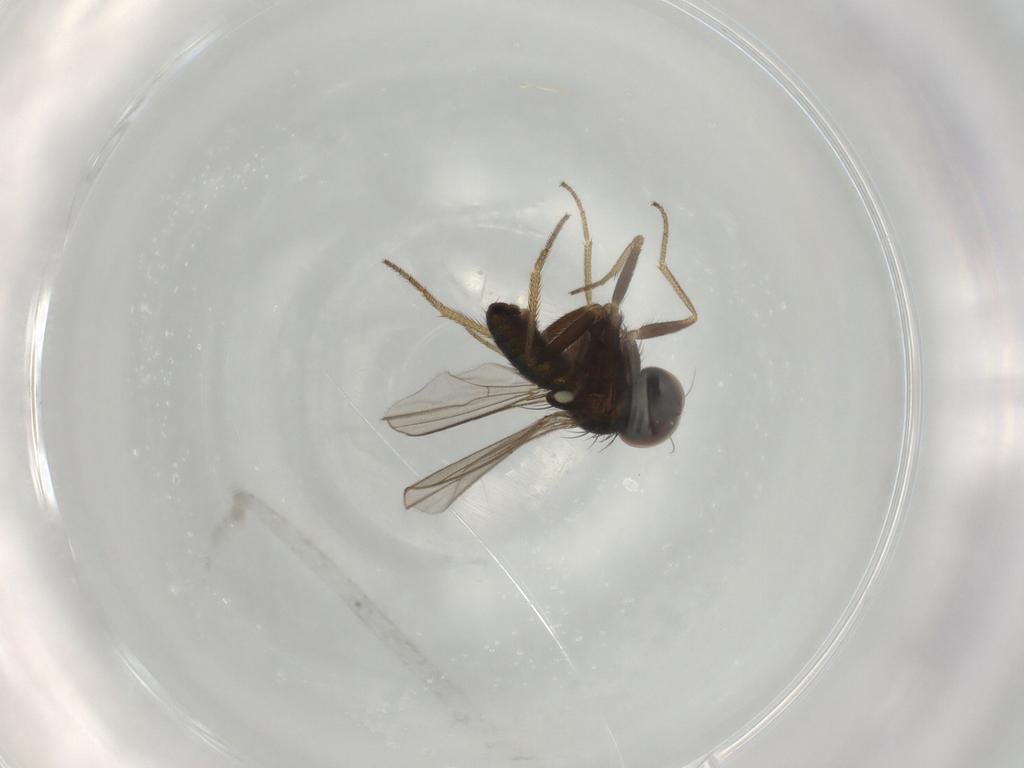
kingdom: Animalia
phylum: Arthropoda
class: Insecta
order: Diptera
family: Dolichopodidae
